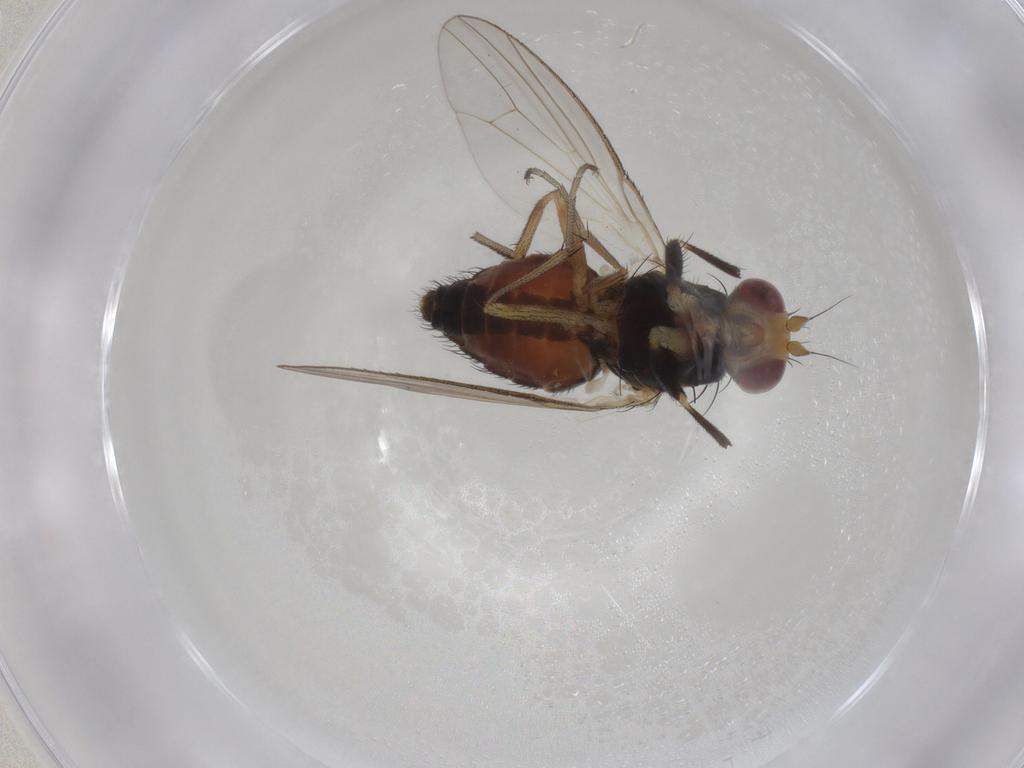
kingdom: Animalia
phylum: Arthropoda
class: Insecta
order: Diptera
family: Heleomyzidae
